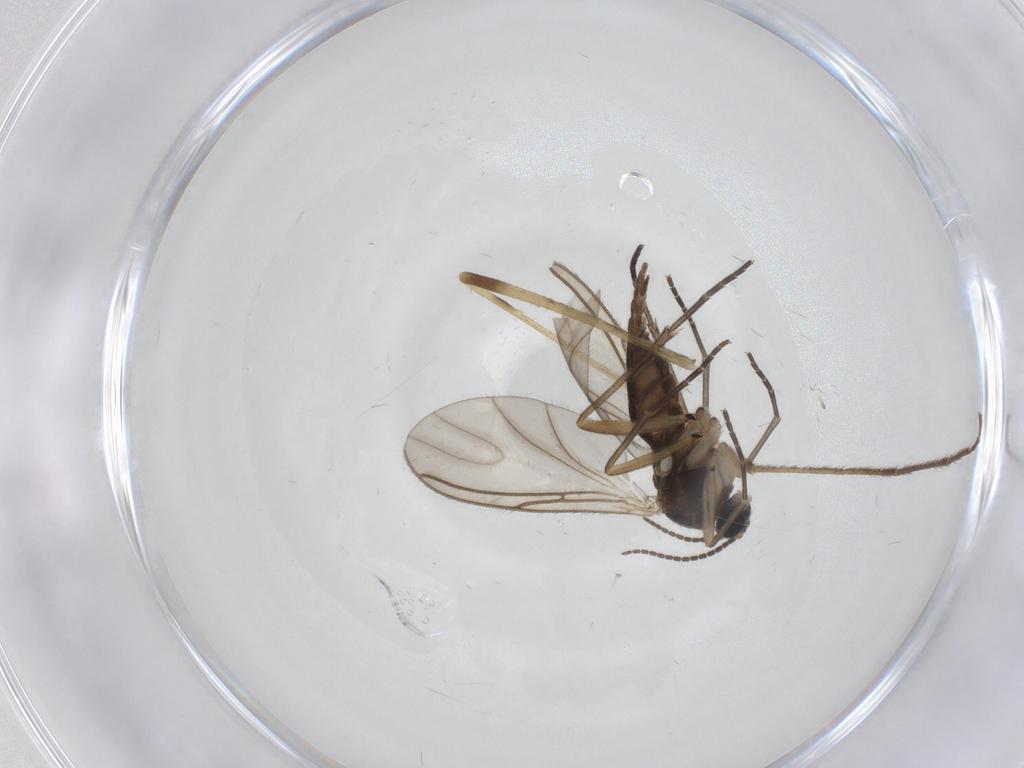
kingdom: Animalia
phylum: Arthropoda
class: Insecta
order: Diptera
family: Sciaridae
